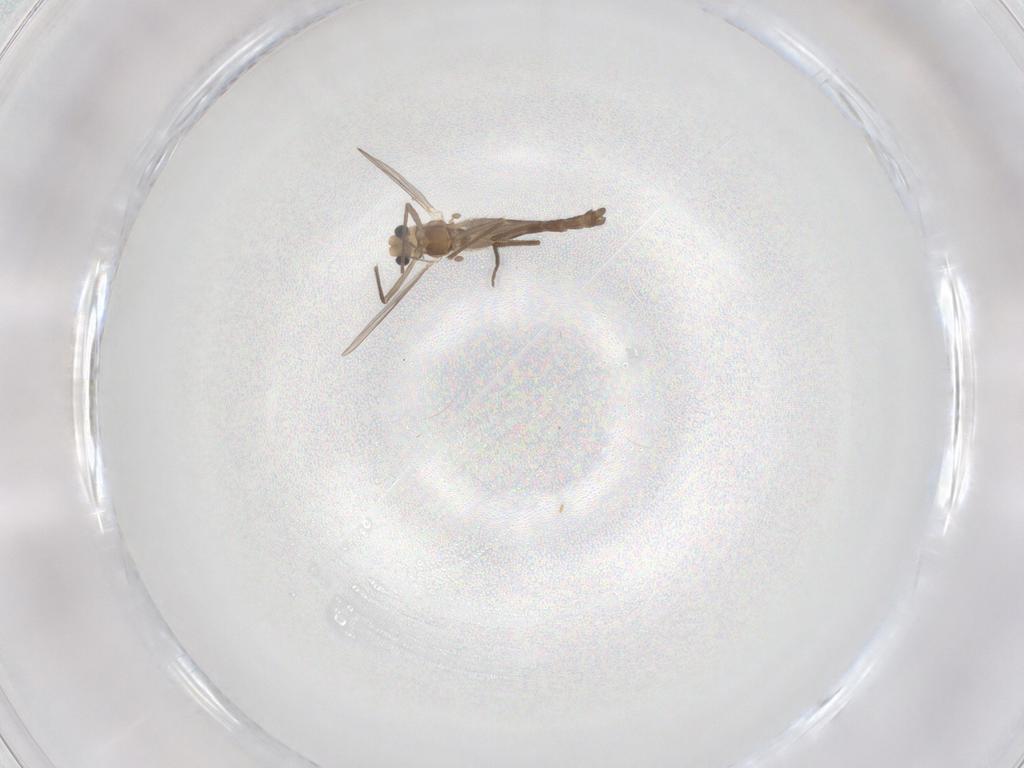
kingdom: Animalia
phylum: Arthropoda
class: Insecta
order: Diptera
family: Chironomidae
